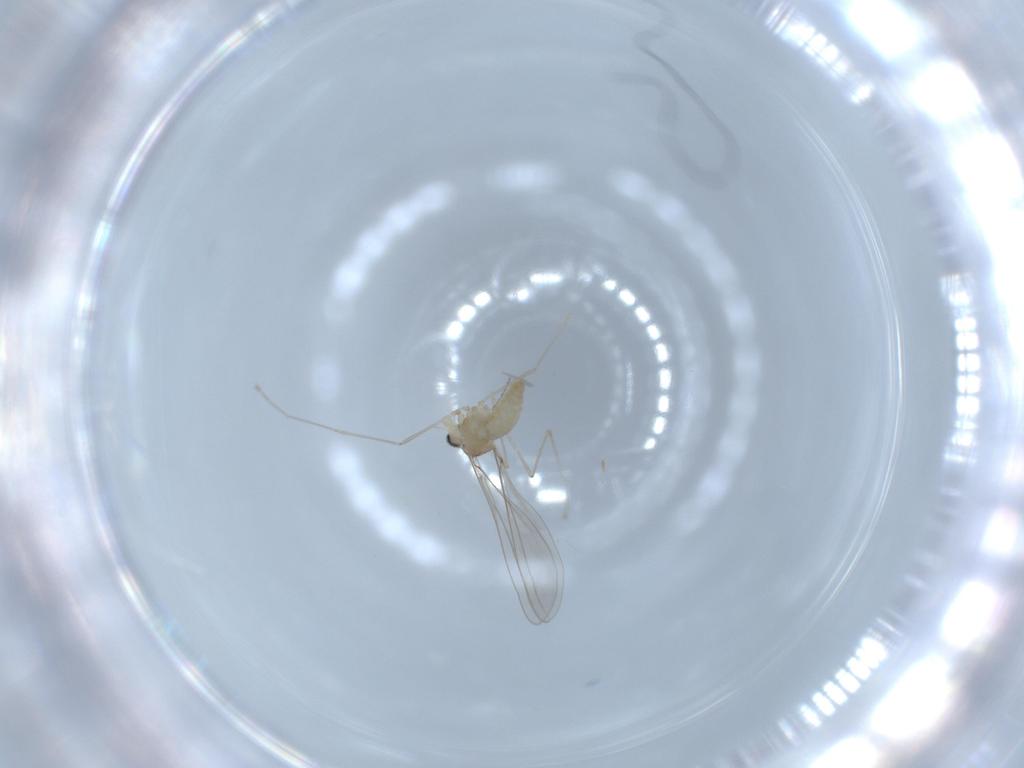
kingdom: Animalia
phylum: Arthropoda
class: Insecta
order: Diptera
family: Cecidomyiidae
